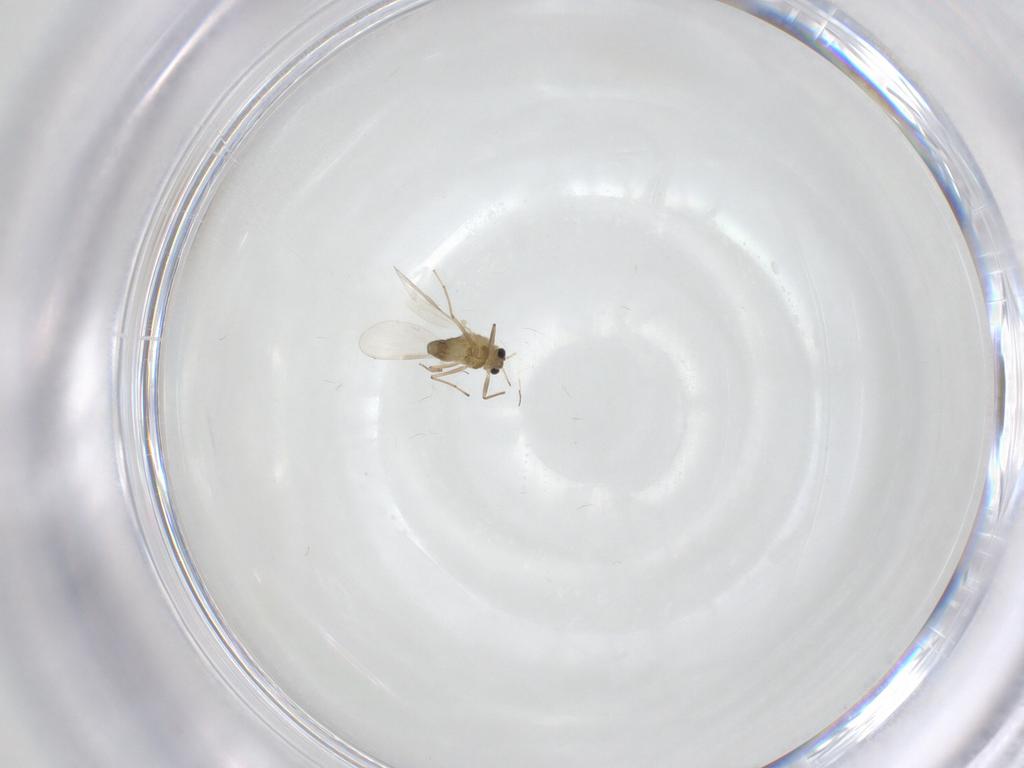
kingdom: Animalia
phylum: Arthropoda
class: Insecta
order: Diptera
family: Chironomidae
